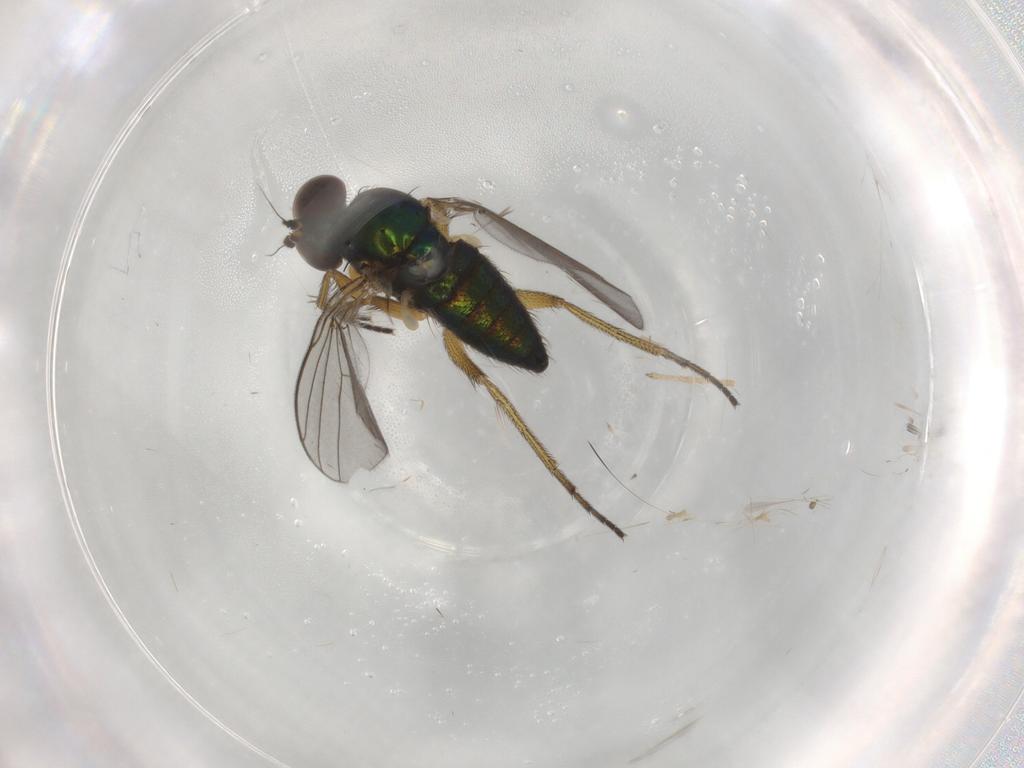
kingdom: Animalia
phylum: Arthropoda
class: Insecta
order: Diptera
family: Dolichopodidae
